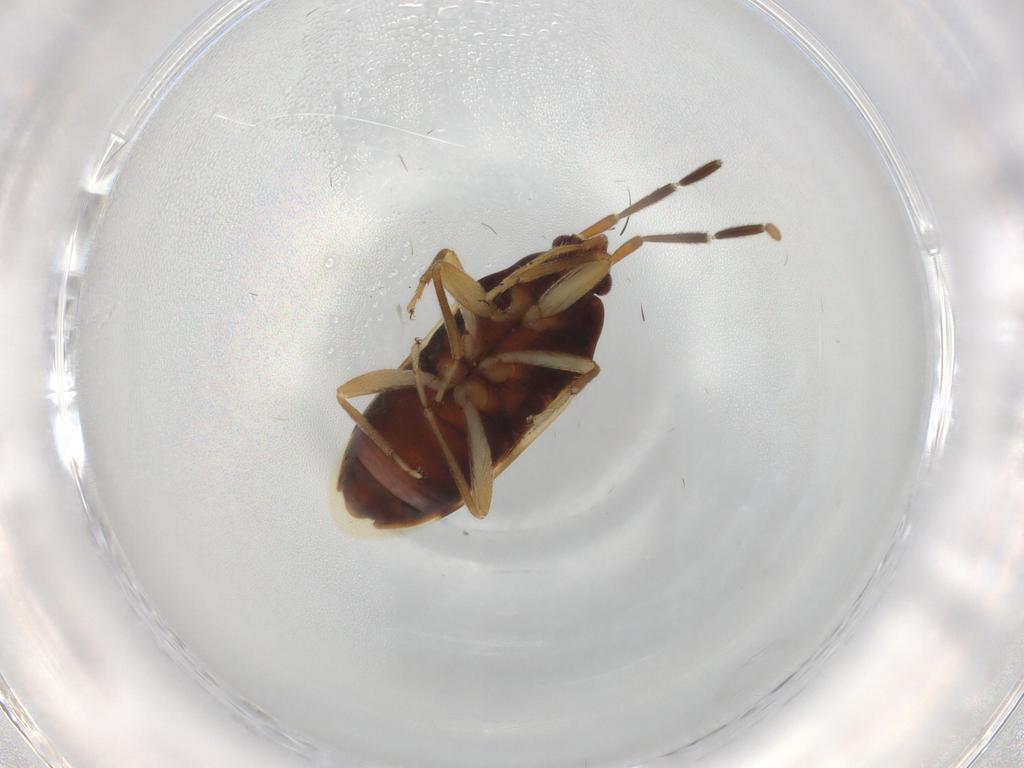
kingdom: Animalia
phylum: Arthropoda
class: Insecta
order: Hemiptera
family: Rhyparochromidae
